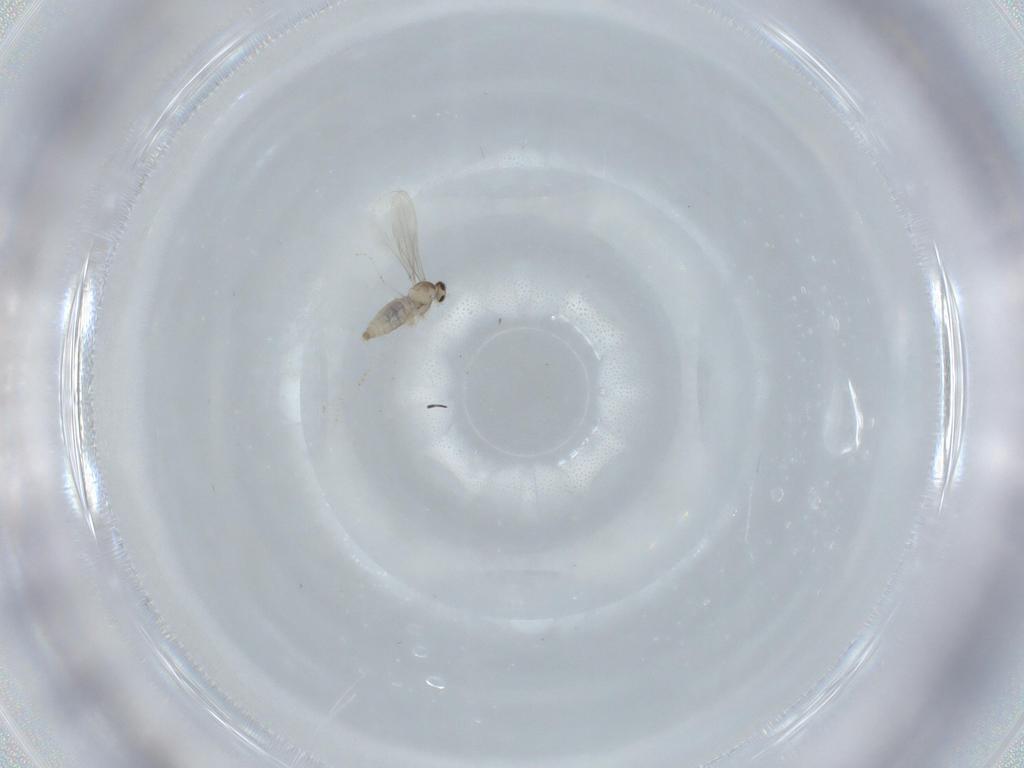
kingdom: Animalia
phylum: Arthropoda
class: Insecta
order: Diptera
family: Cecidomyiidae
